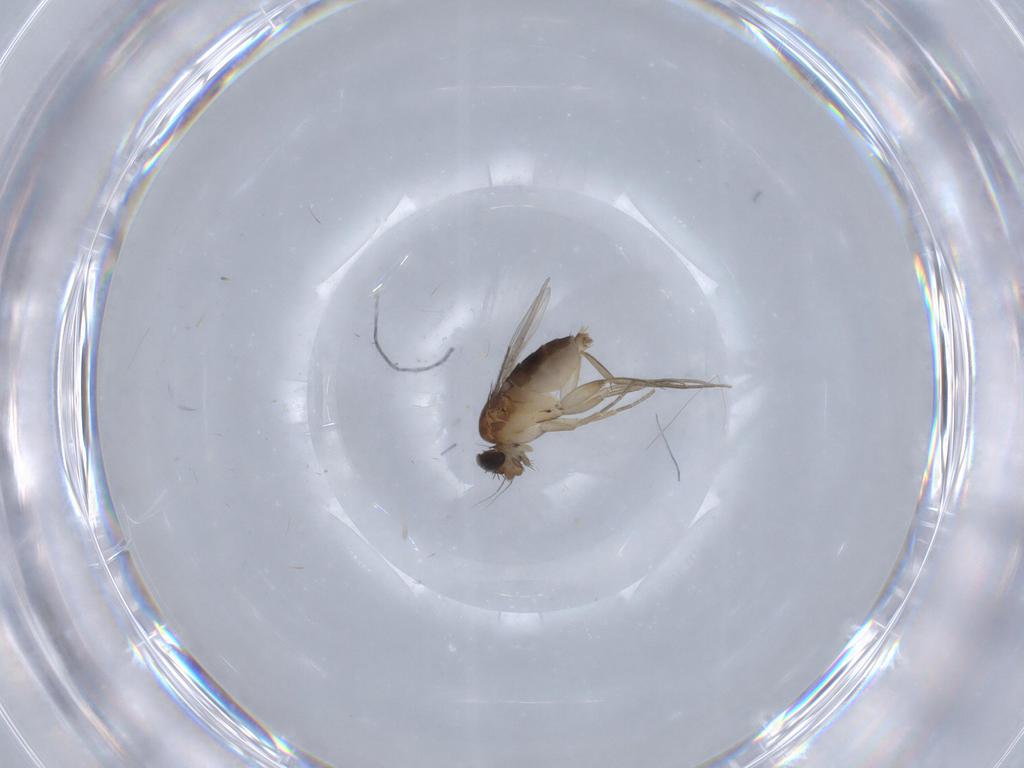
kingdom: Animalia
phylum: Arthropoda
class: Insecta
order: Diptera
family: Phoridae
